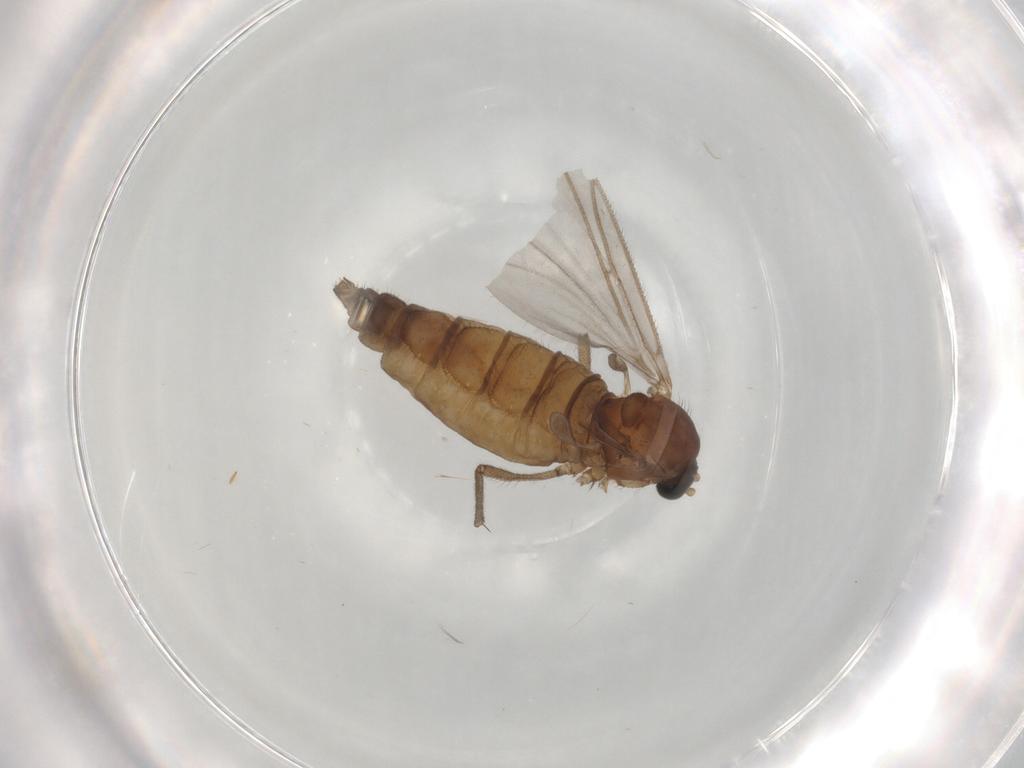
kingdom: Animalia
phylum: Arthropoda
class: Insecta
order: Diptera
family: Sciaridae
